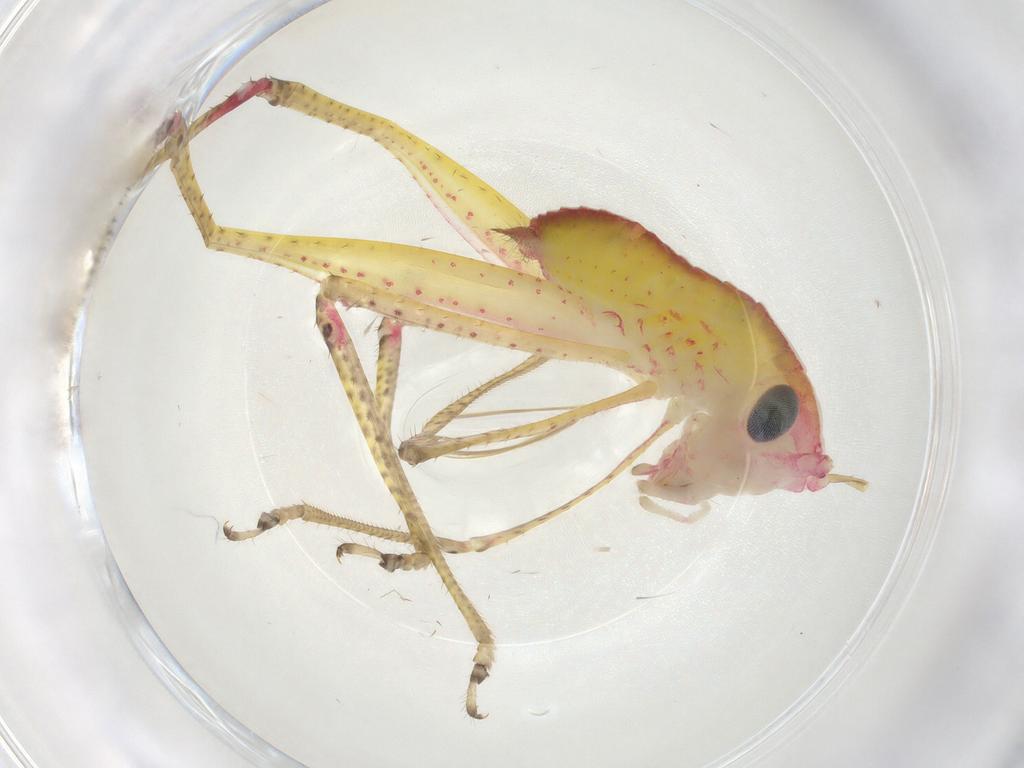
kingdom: Animalia
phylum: Arthropoda
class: Insecta
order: Orthoptera
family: Tettigoniidae
